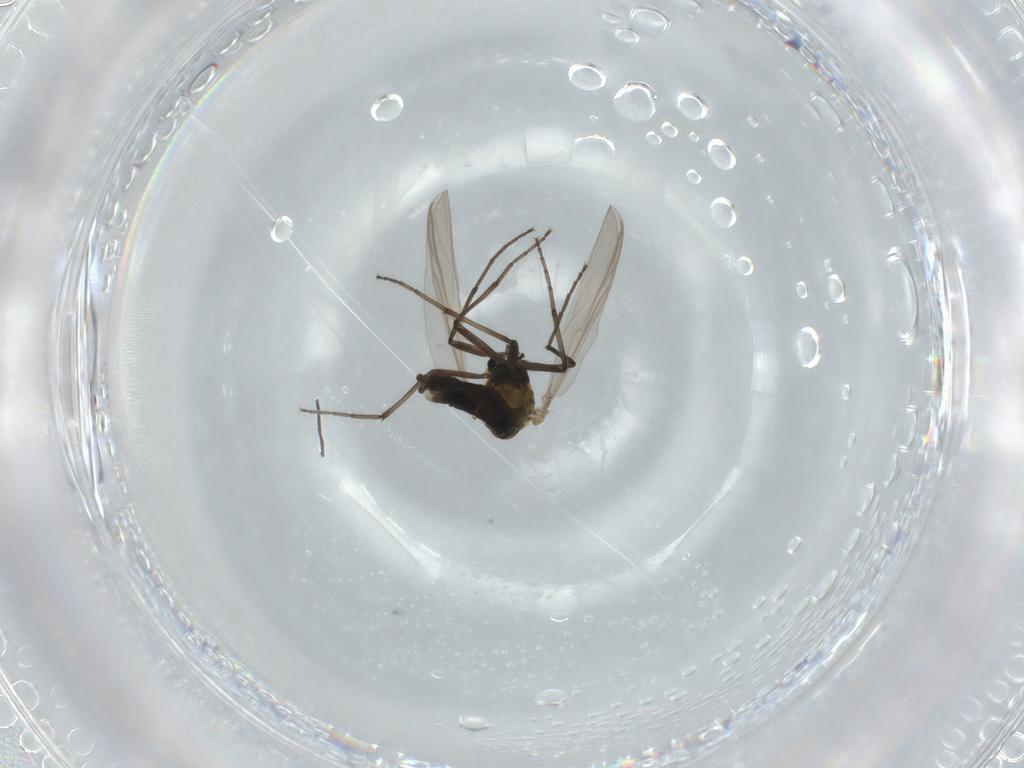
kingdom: Animalia
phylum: Arthropoda
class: Insecta
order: Diptera
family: Chironomidae
